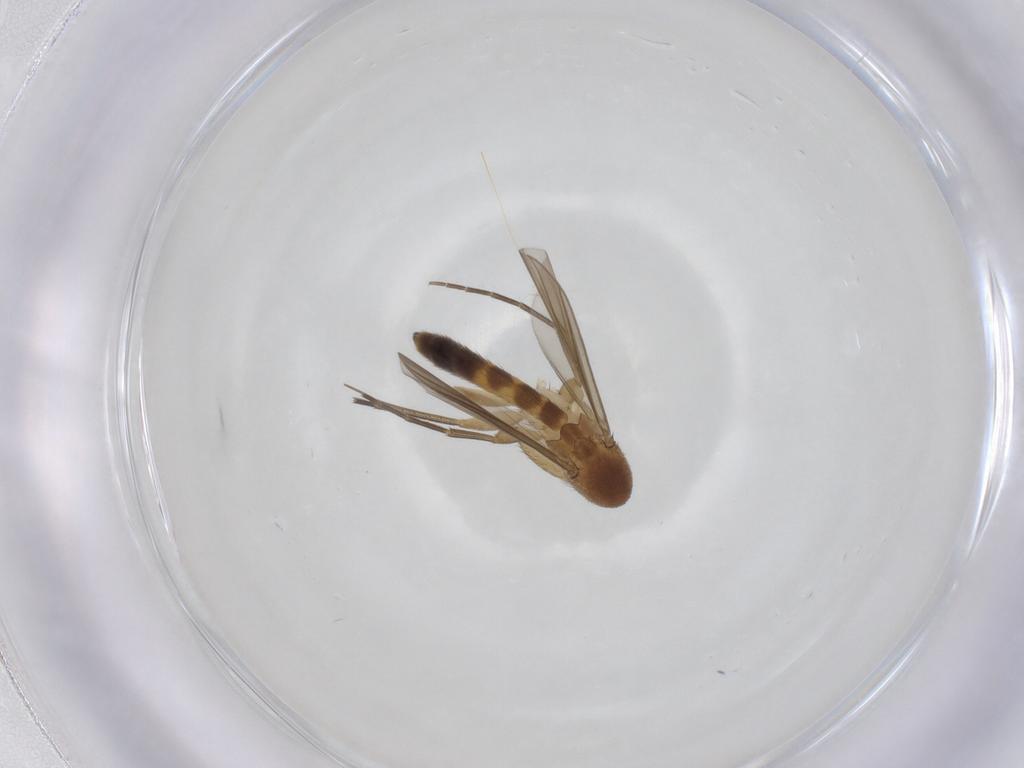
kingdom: Animalia
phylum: Arthropoda
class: Insecta
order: Diptera
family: Mycetophilidae
